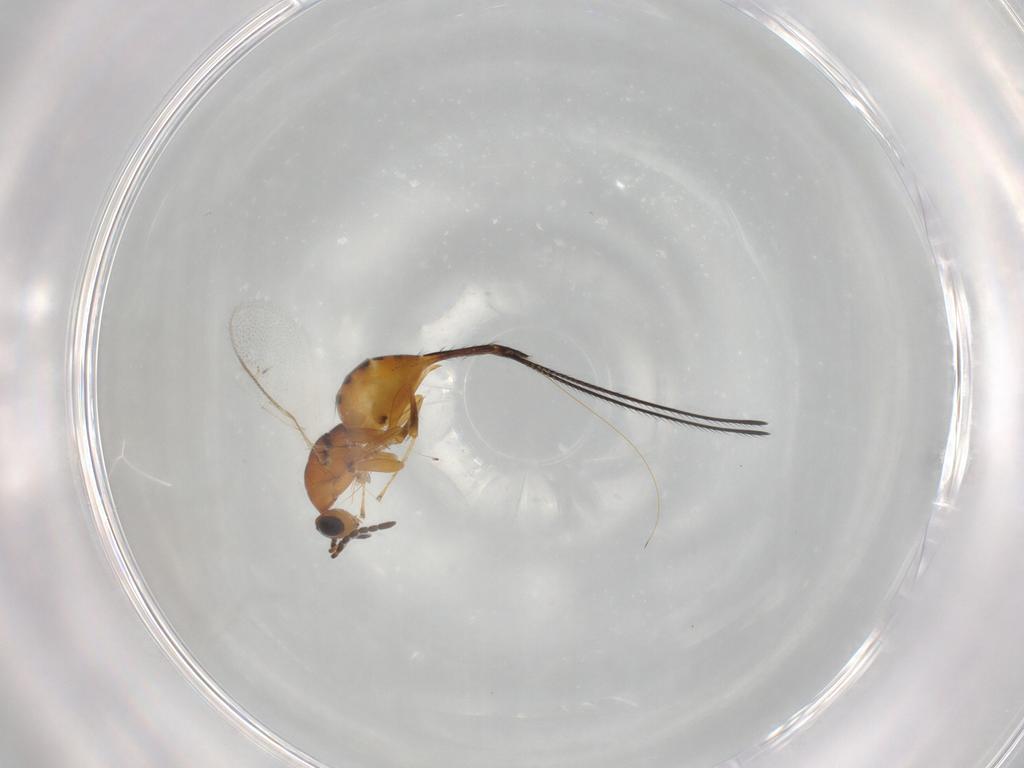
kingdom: Animalia
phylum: Arthropoda
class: Insecta
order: Hymenoptera
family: Pteromalidae
